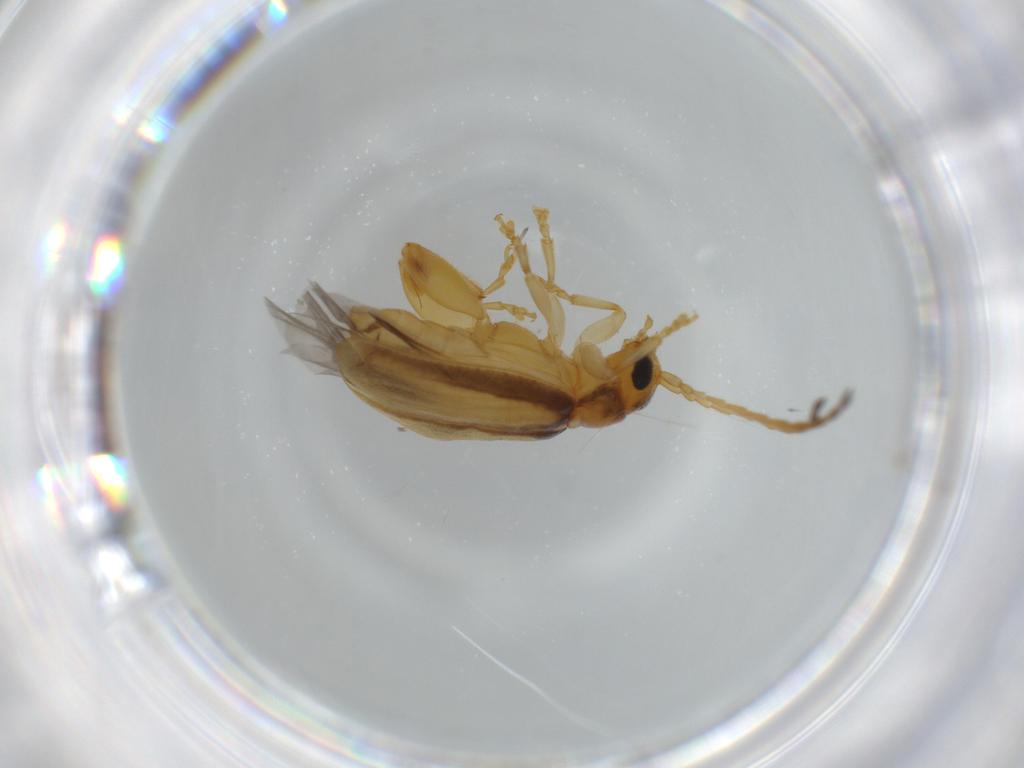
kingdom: Animalia
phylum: Arthropoda
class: Insecta
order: Coleoptera
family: Chrysomelidae
